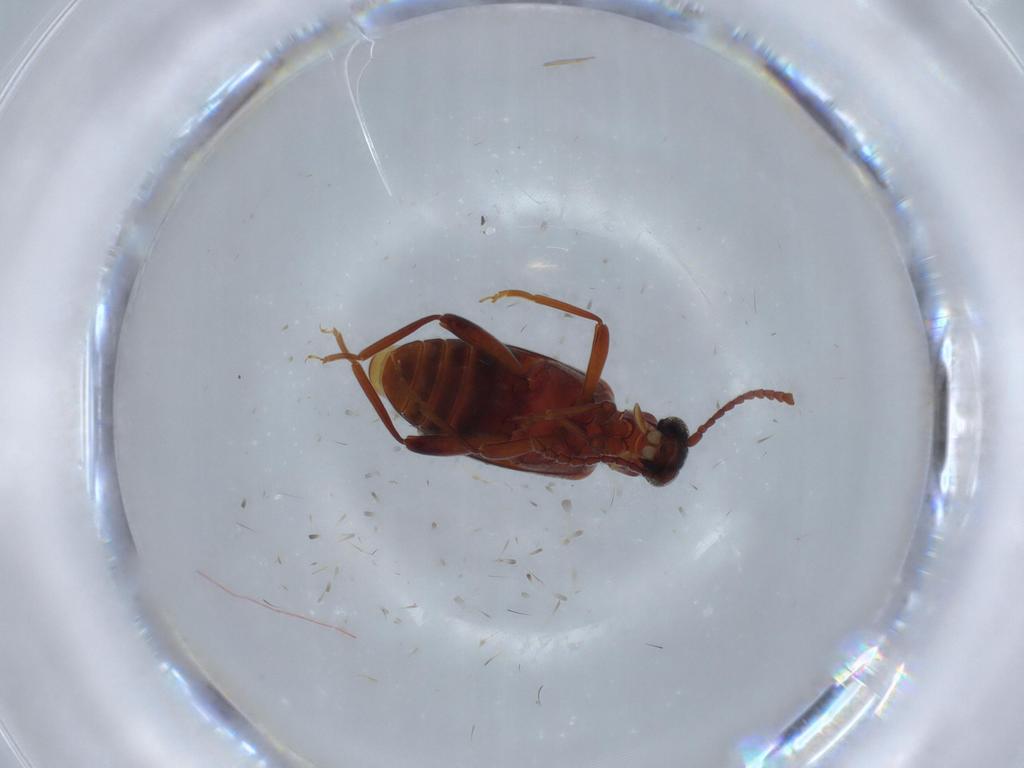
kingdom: Animalia
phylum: Arthropoda
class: Insecta
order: Coleoptera
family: Aderidae
